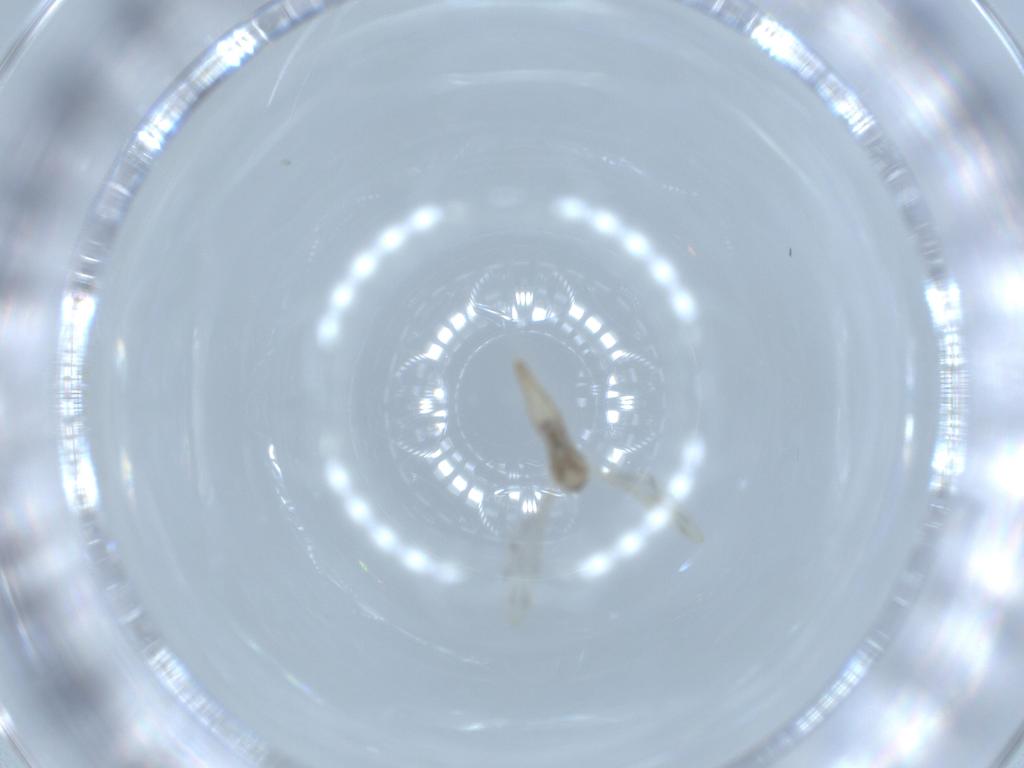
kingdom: Animalia
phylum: Arthropoda
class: Insecta
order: Diptera
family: Cecidomyiidae
